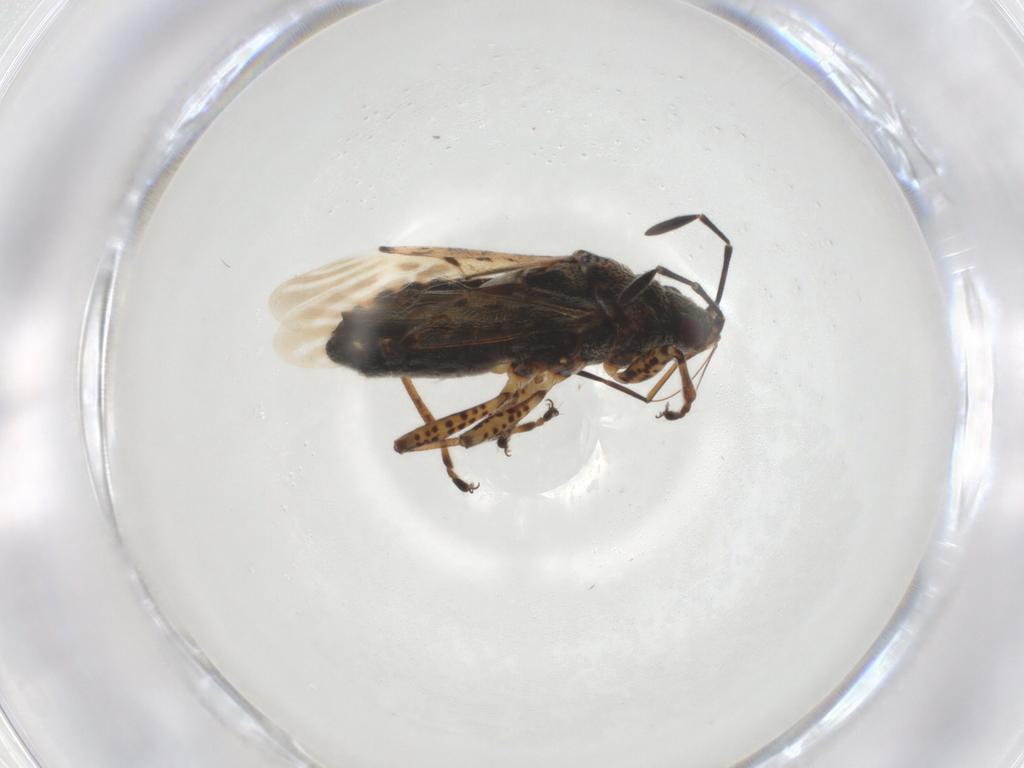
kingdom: Animalia
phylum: Arthropoda
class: Insecta
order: Hemiptera
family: Lygaeidae
